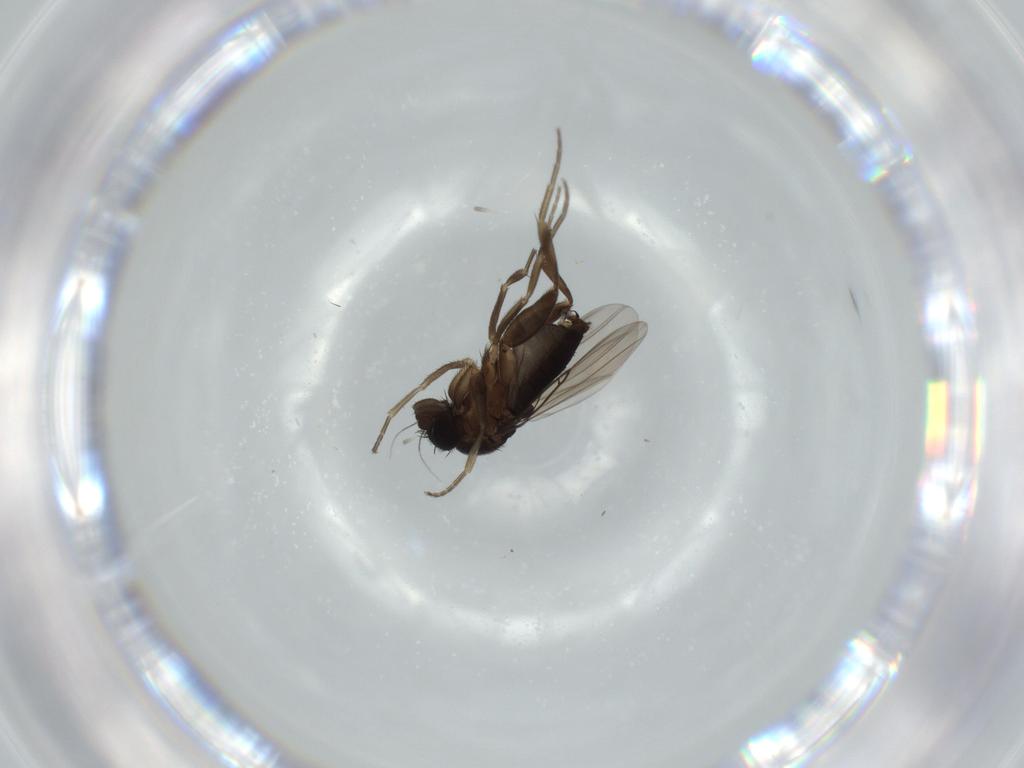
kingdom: Animalia
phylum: Arthropoda
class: Insecta
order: Diptera
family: Phoridae
